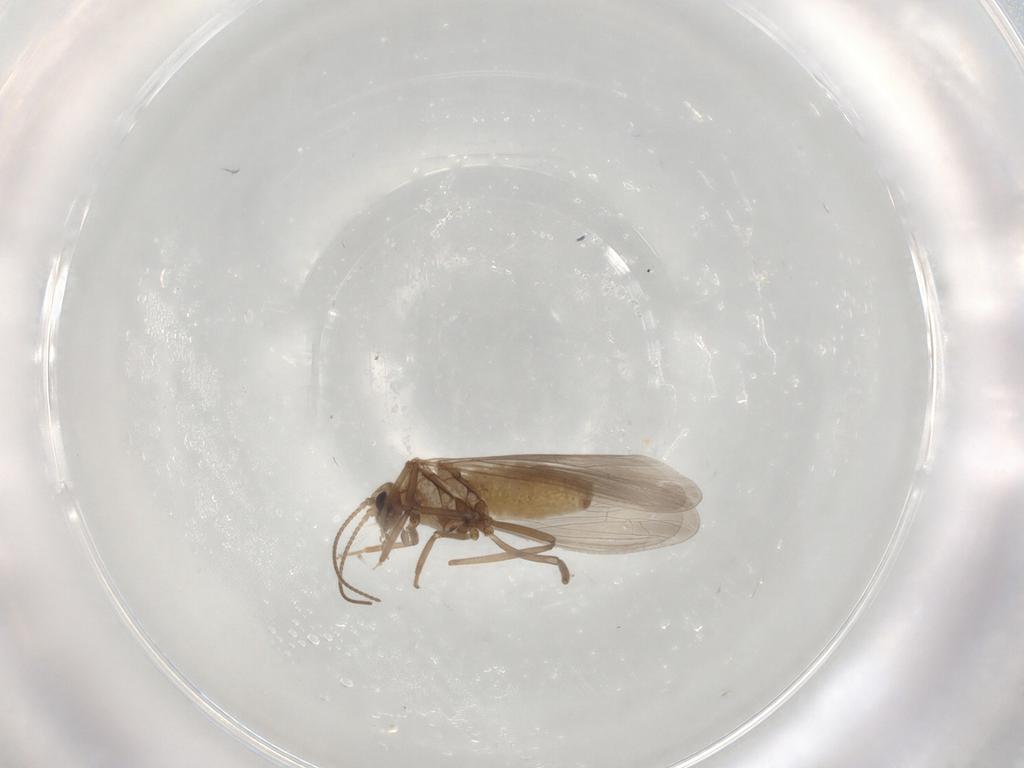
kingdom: Animalia
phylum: Arthropoda
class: Insecta
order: Neuroptera
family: Coniopterygidae
